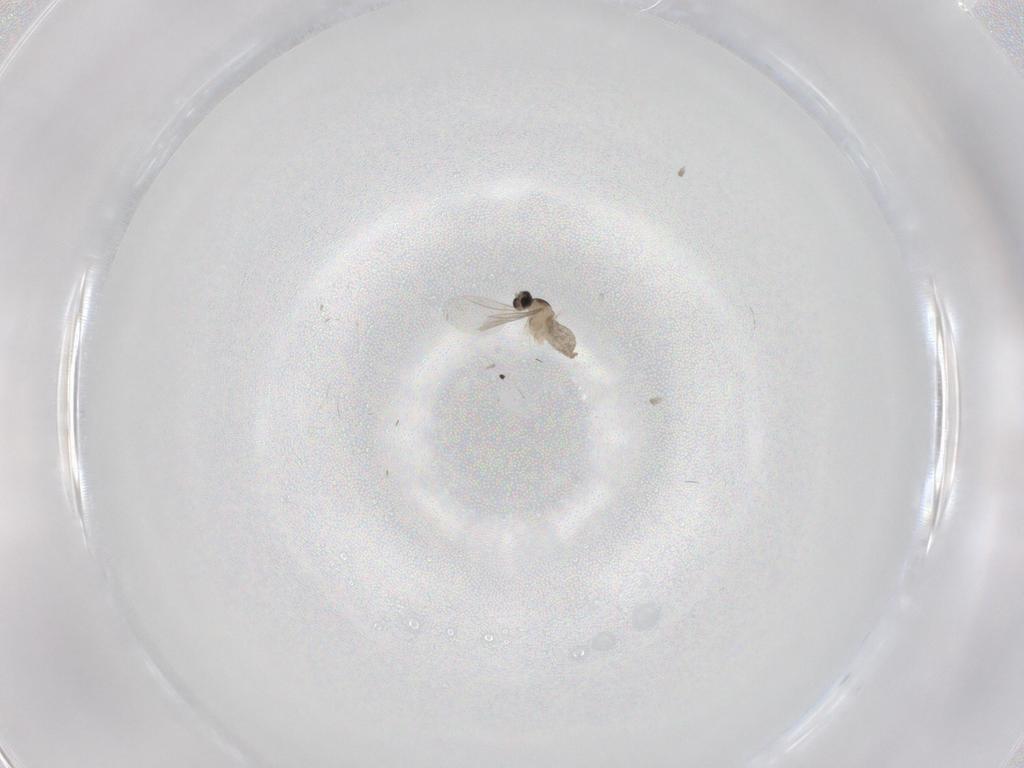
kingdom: Animalia
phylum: Arthropoda
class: Insecta
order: Diptera
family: Cecidomyiidae
